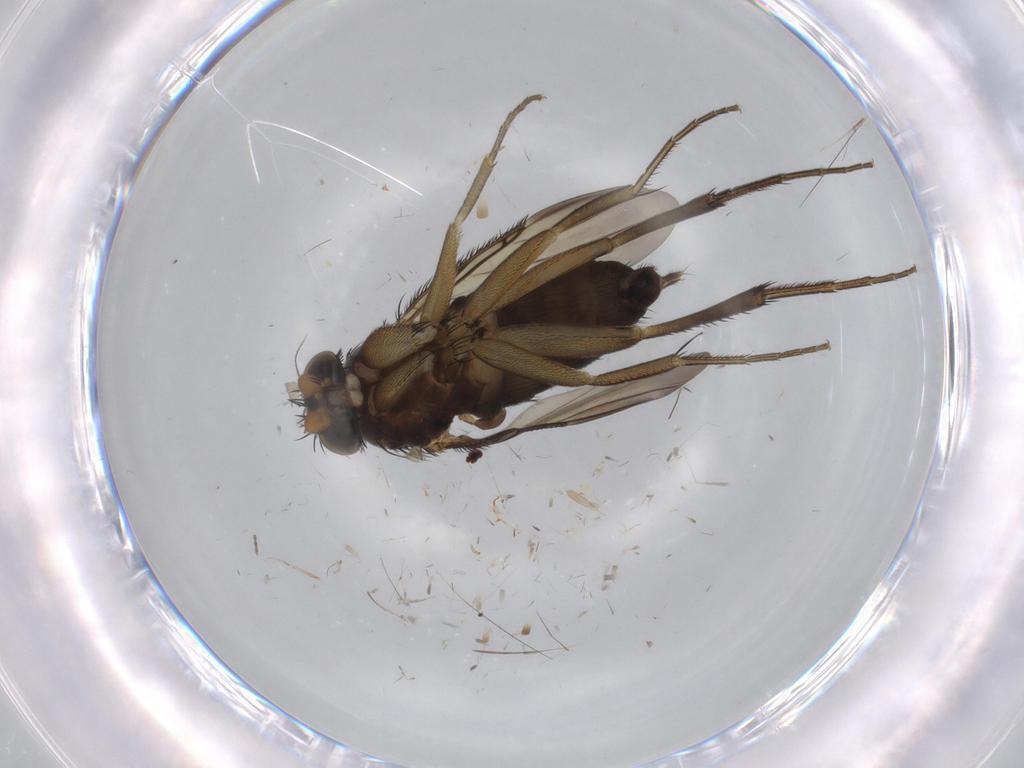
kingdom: Animalia
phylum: Arthropoda
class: Insecta
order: Diptera
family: Phoridae
